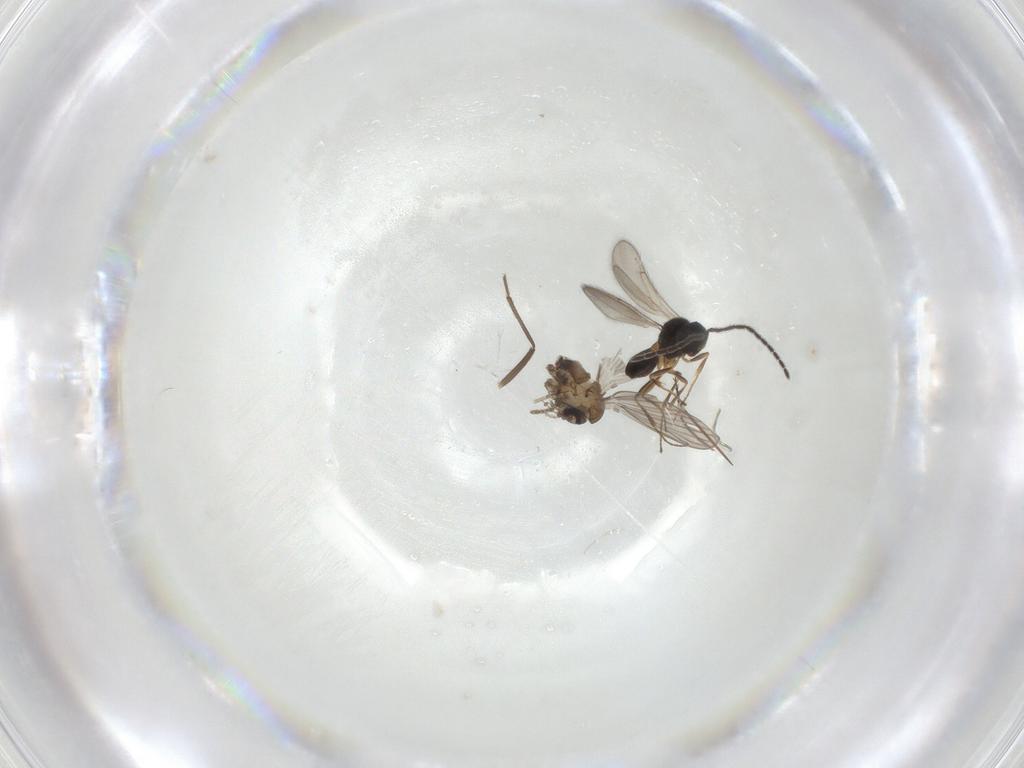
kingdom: Animalia
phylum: Arthropoda
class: Insecta
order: Diptera
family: Psychodidae
